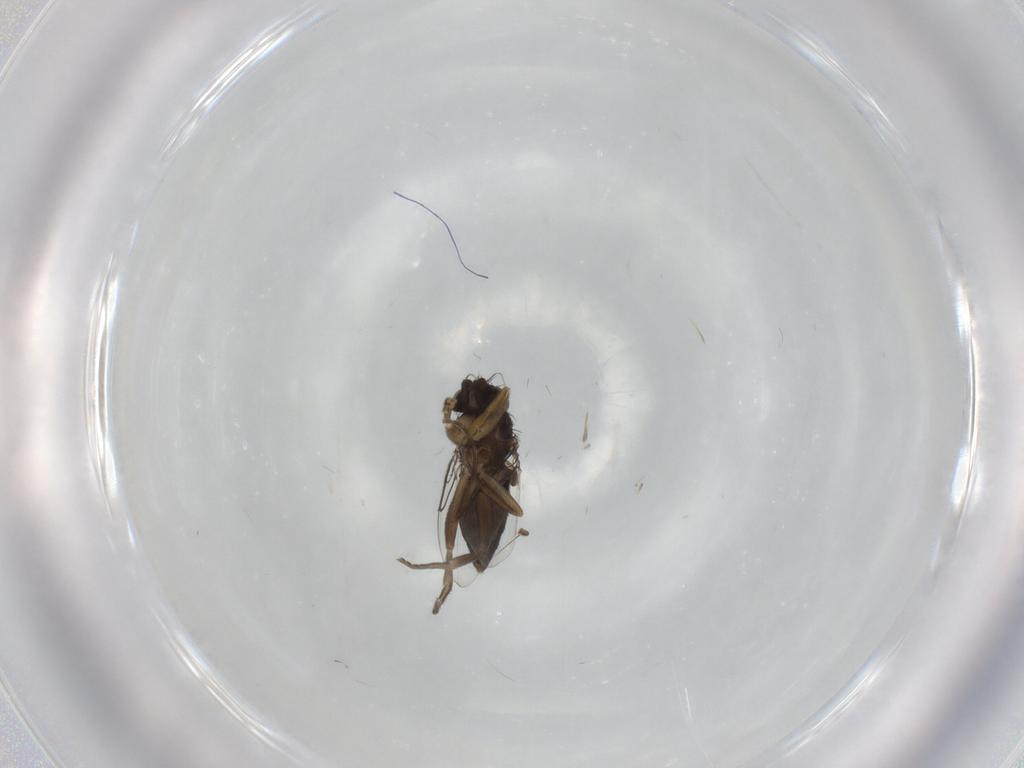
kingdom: Animalia
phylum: Arthropoda
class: Insecta
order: Diptera
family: Phoridae
